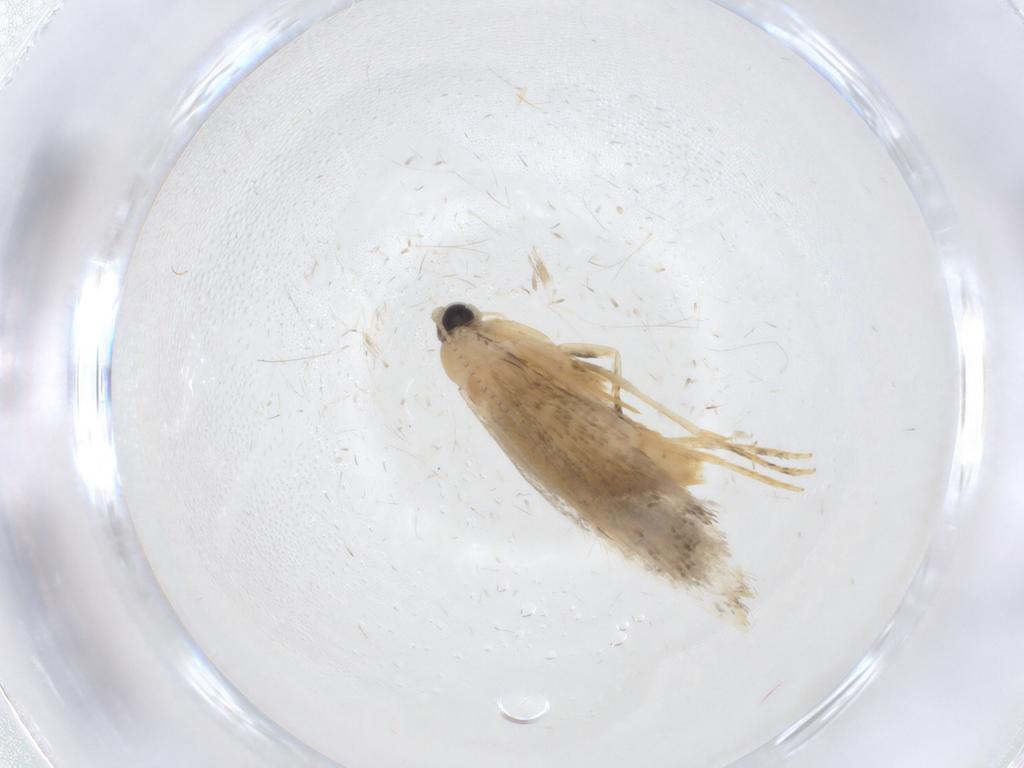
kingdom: Animalia
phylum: Arthropoda
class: Insecta
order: Lepidoptera
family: Tineidae
